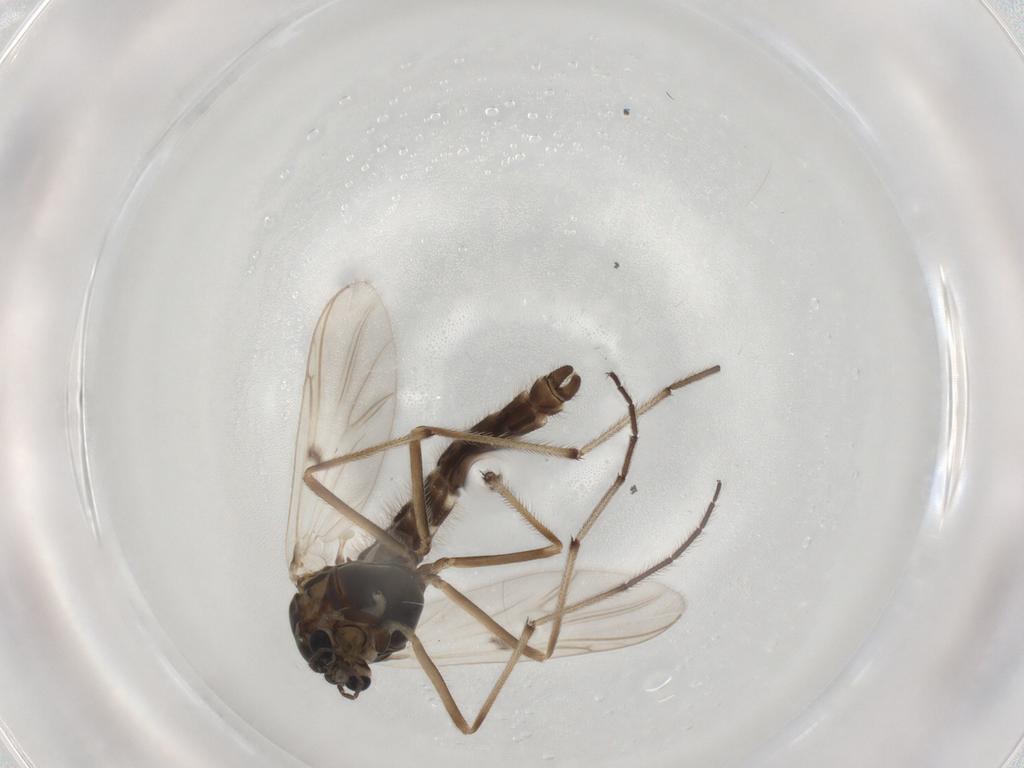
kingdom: Animalia
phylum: Arthropoda
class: Insecta
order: Diptera
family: Chironomidae
